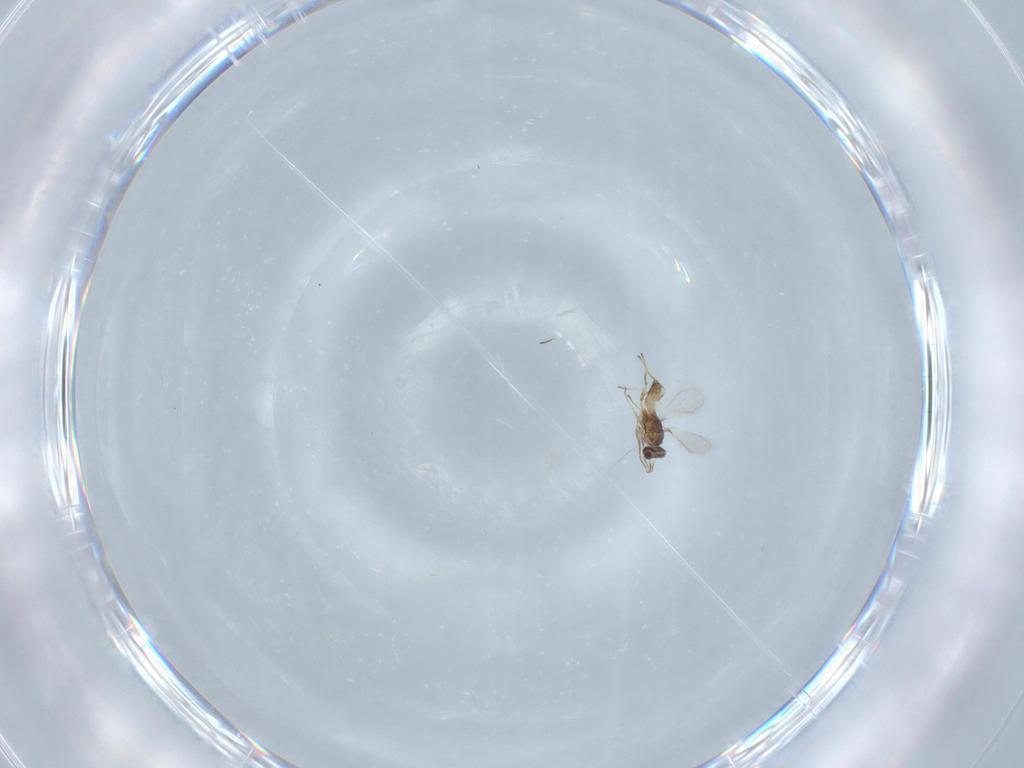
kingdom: Animalia
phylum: Arthropoda
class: Insecta
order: Hymenoptera
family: Mymaridae
